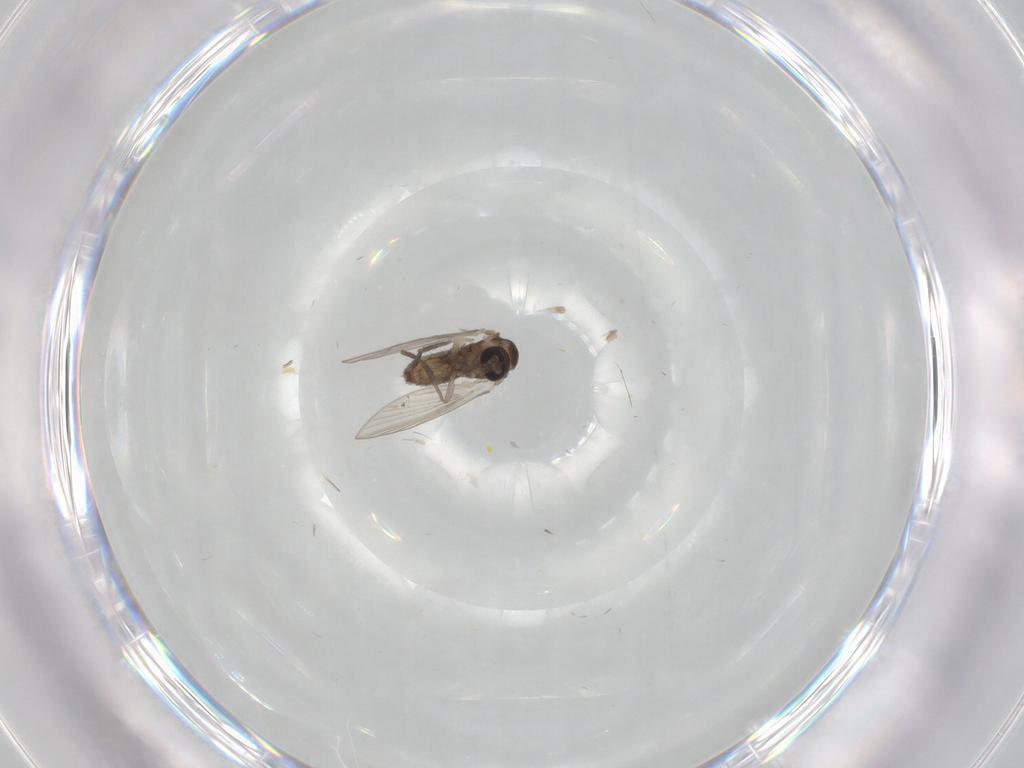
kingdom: Animalia
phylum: Arthropoda
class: Insecta
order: Diptera
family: Psychodidae
